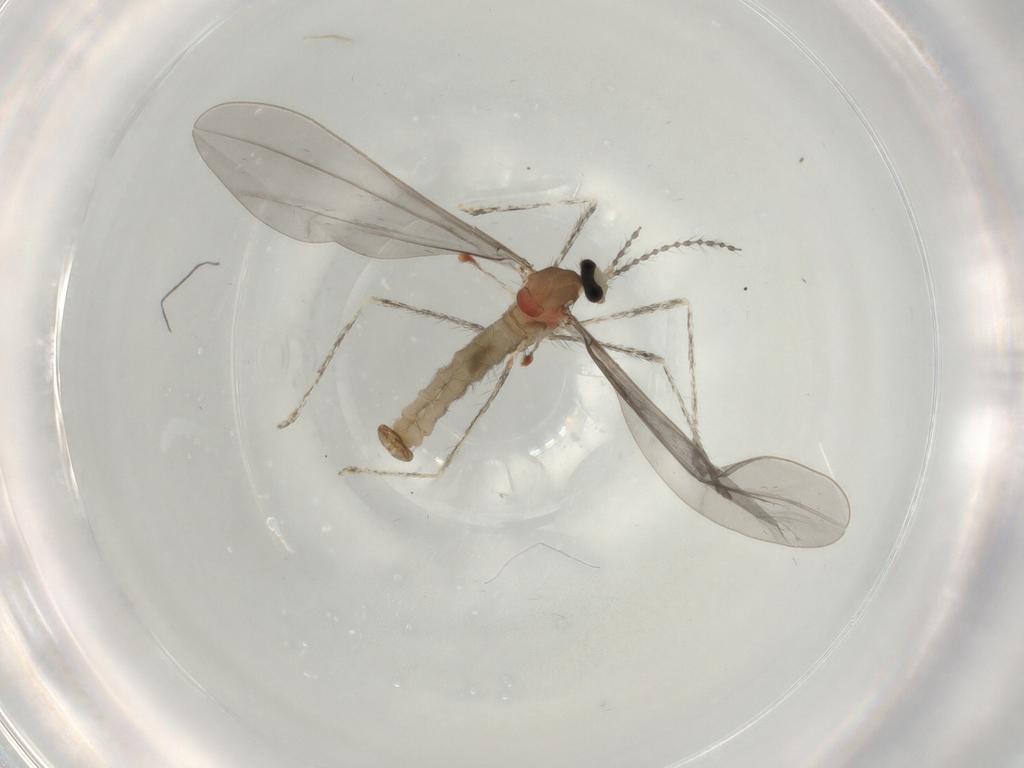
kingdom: Animalia
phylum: Arthropoda
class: Insecta
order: Diptera
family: Cecidomyiidae
